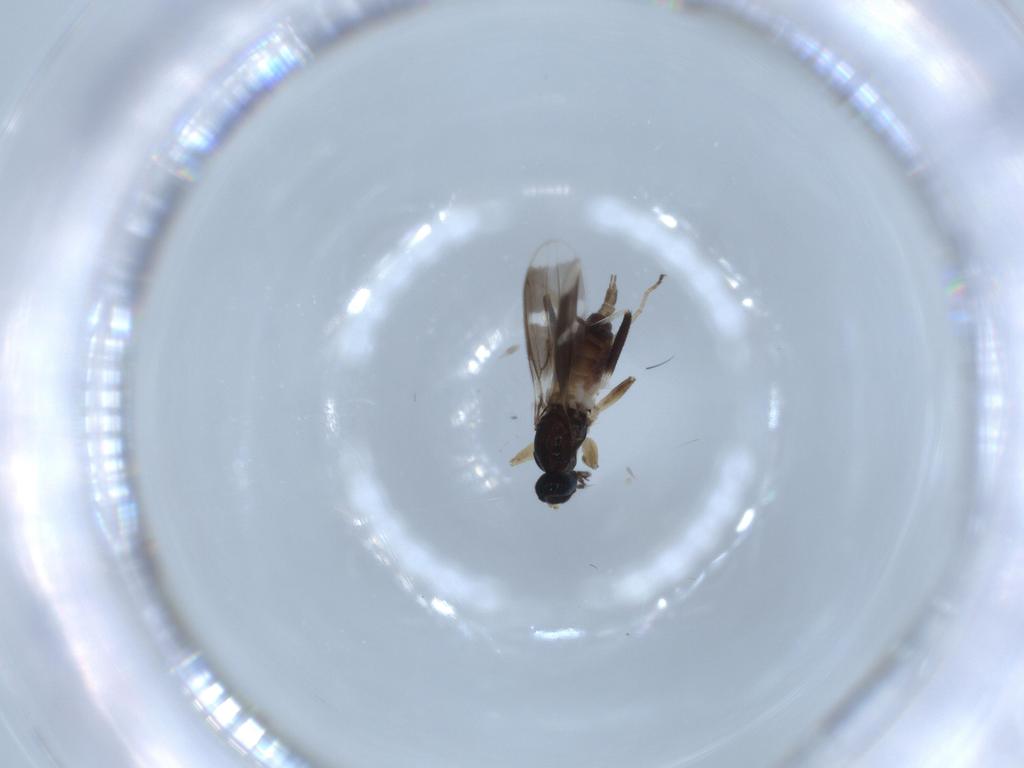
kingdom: Animalia
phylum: Arthropoda
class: Insecta
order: Diptera
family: Hybotidae
